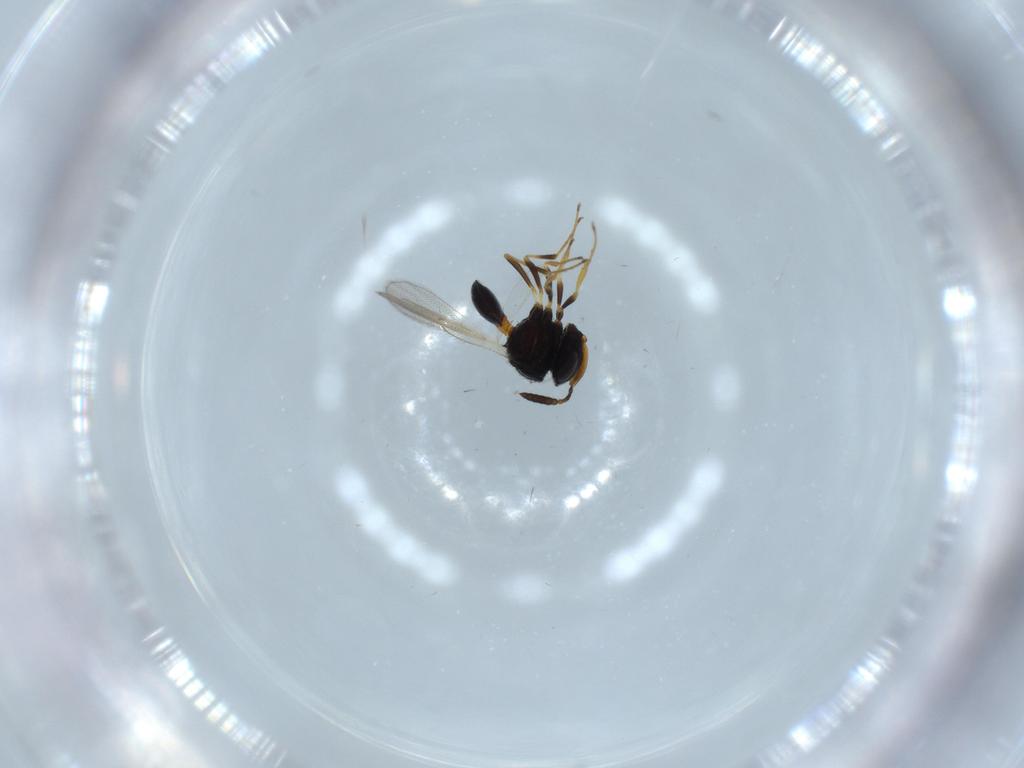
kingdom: Animalia
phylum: Arthropoda
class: Insecta
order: Hymenoptera
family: Scelionidae
